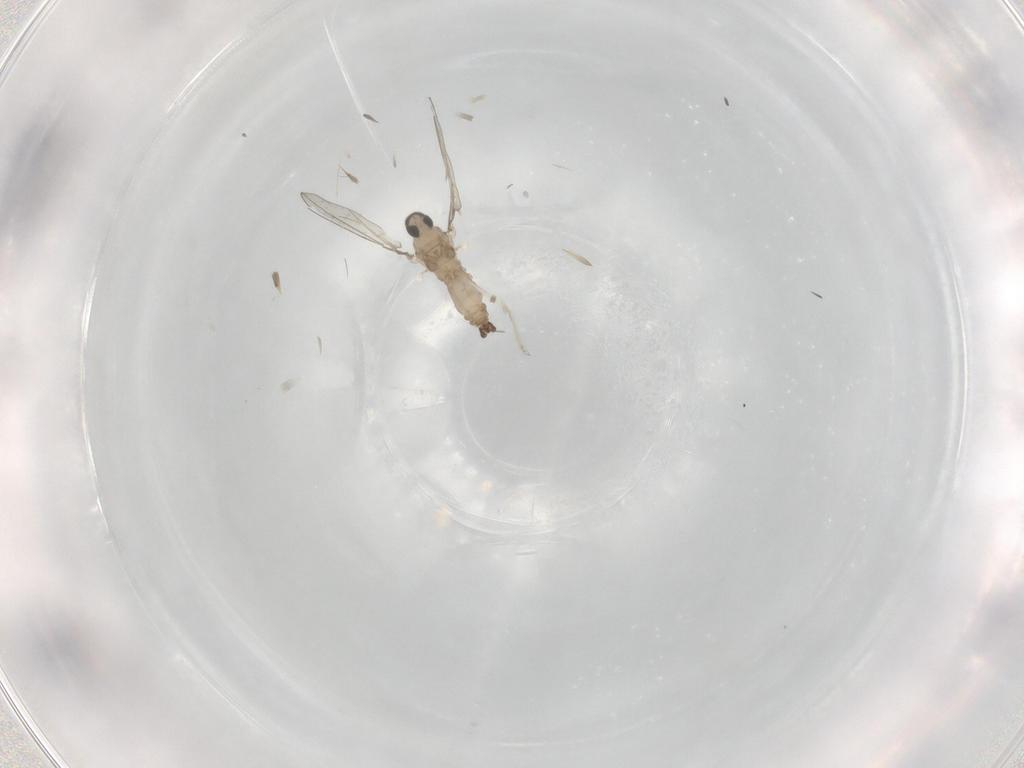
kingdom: Animalia
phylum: Arthropoda
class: Insecta
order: Diptera
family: Cecidomyiidae
